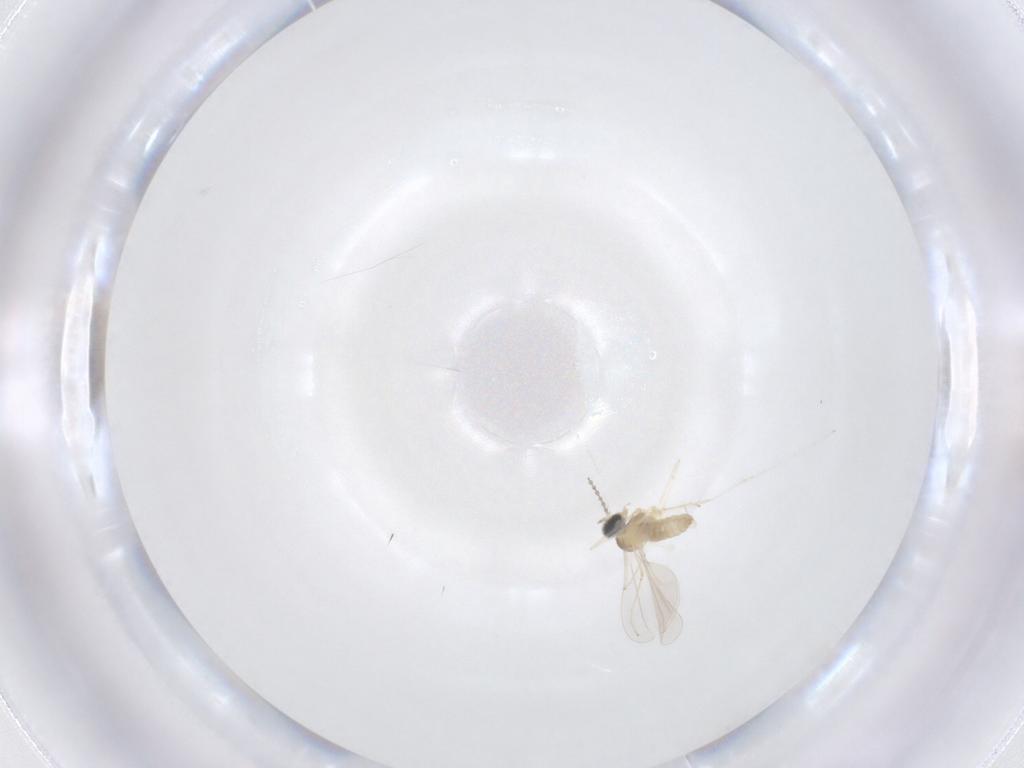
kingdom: Animalia
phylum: Arthropoda
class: Insecta
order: Diptera
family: Cecidomyiidae
